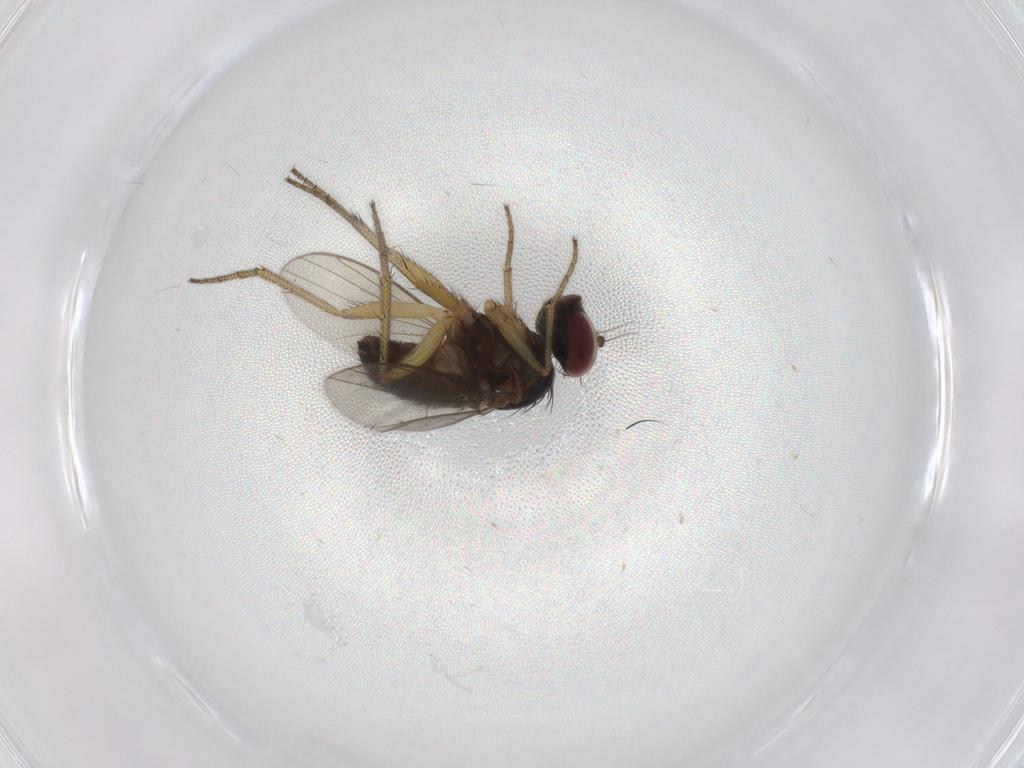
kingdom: Animalia
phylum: Arthropoda
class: Insecta
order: Diptera
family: Dolichopodidae
